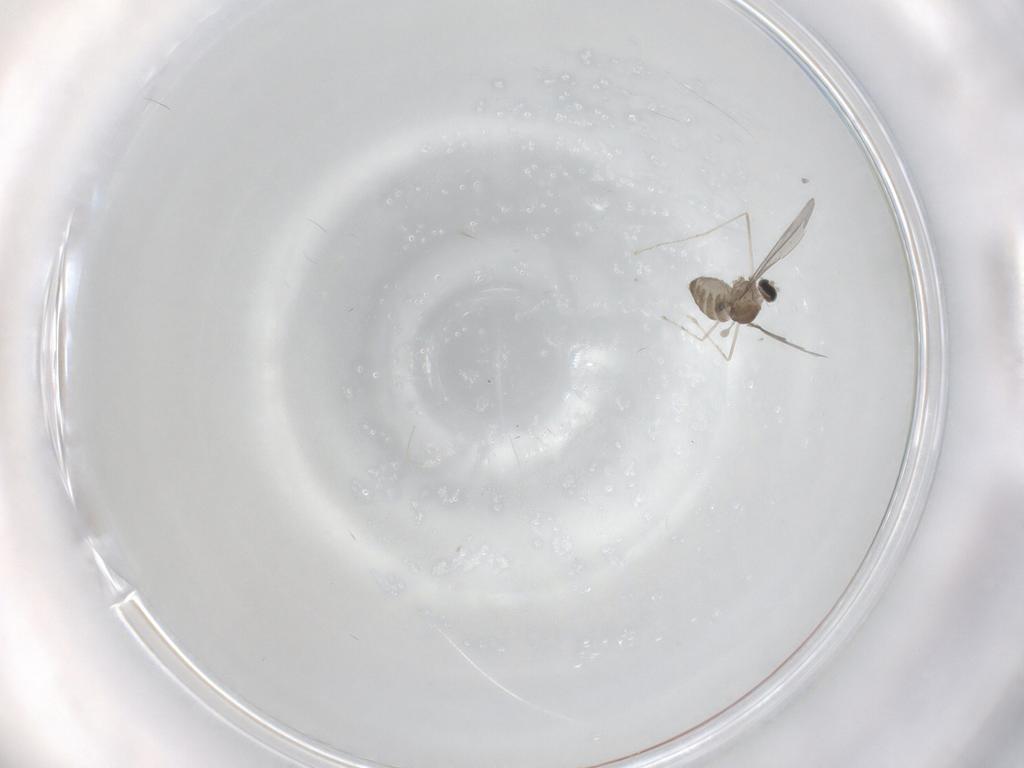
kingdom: Animalia
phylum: Arthropoda
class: Insecta
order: Diptera
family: Cecidomyiidae
